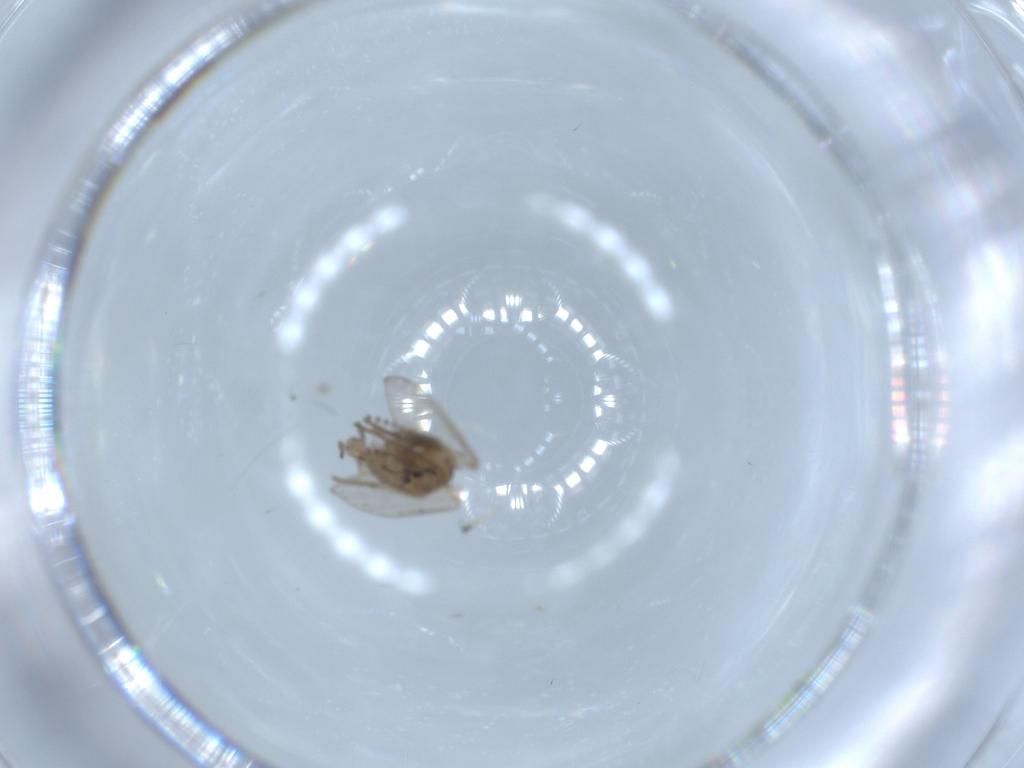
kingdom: Animalia
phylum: Arthropoda
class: Insecta
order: Diptera
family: Psychodidae
